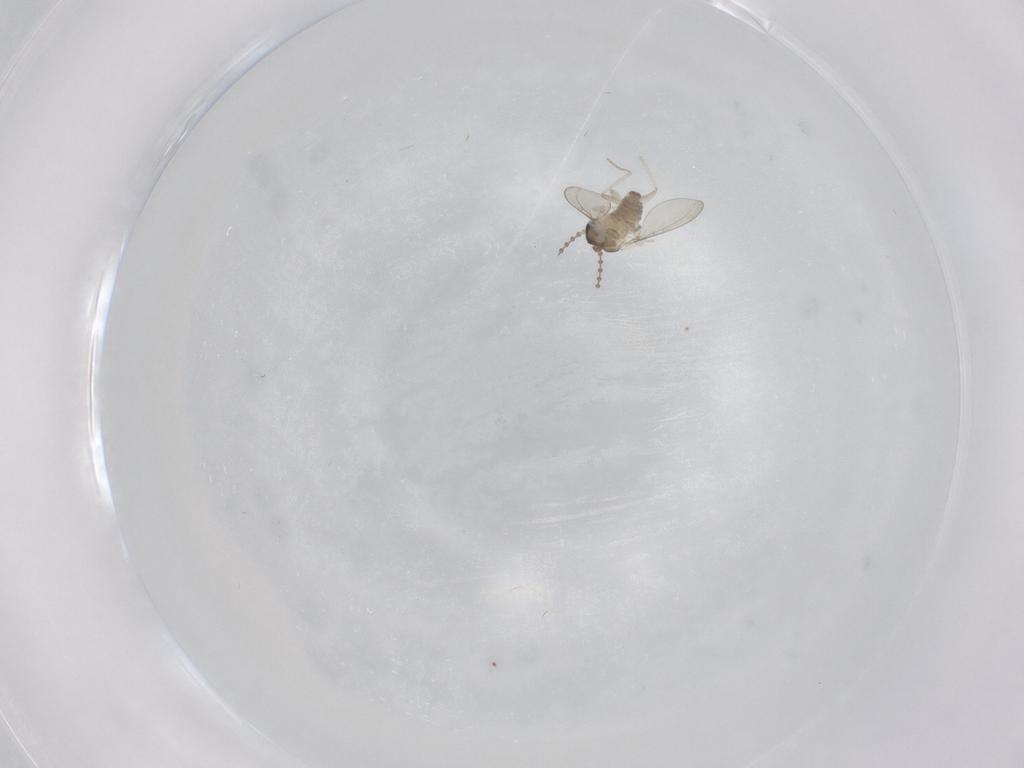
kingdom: Animalia
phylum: Arthropoda
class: Insecta
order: Diptera
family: Cecidomyiidae
